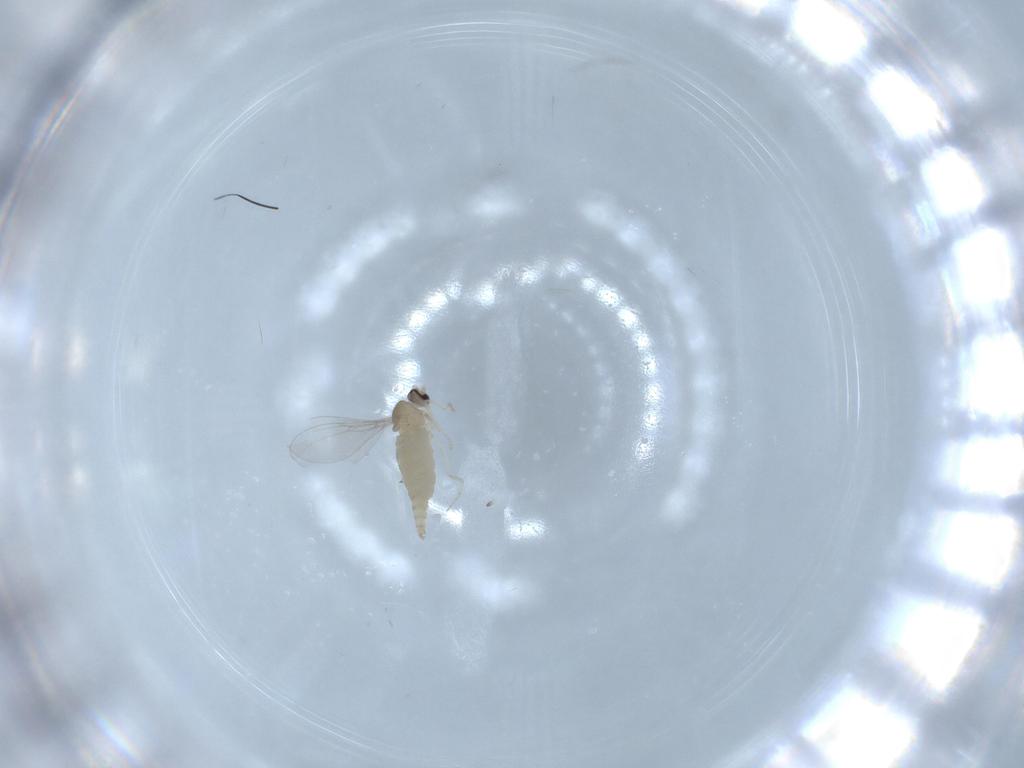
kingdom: Animalia
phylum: Arthropoda
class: Insecta
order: Diptera
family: Cecidomyiidae
